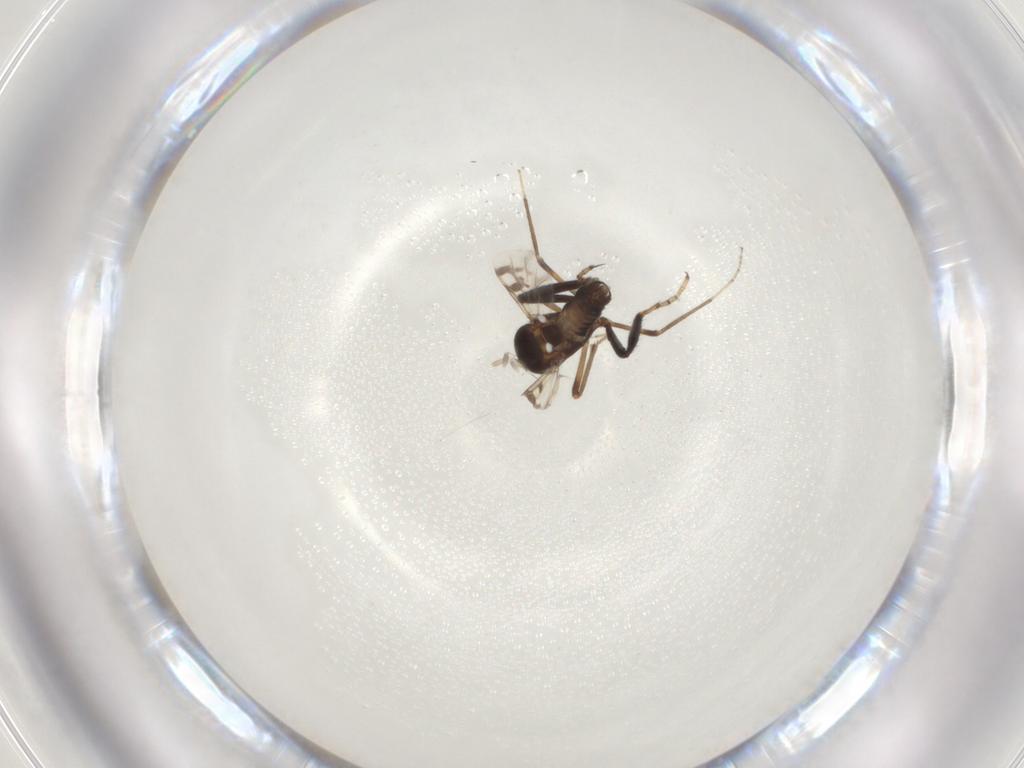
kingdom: Animalia
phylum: Arthropoda
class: Insecta
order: Diptera
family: Ceratopogonidae
